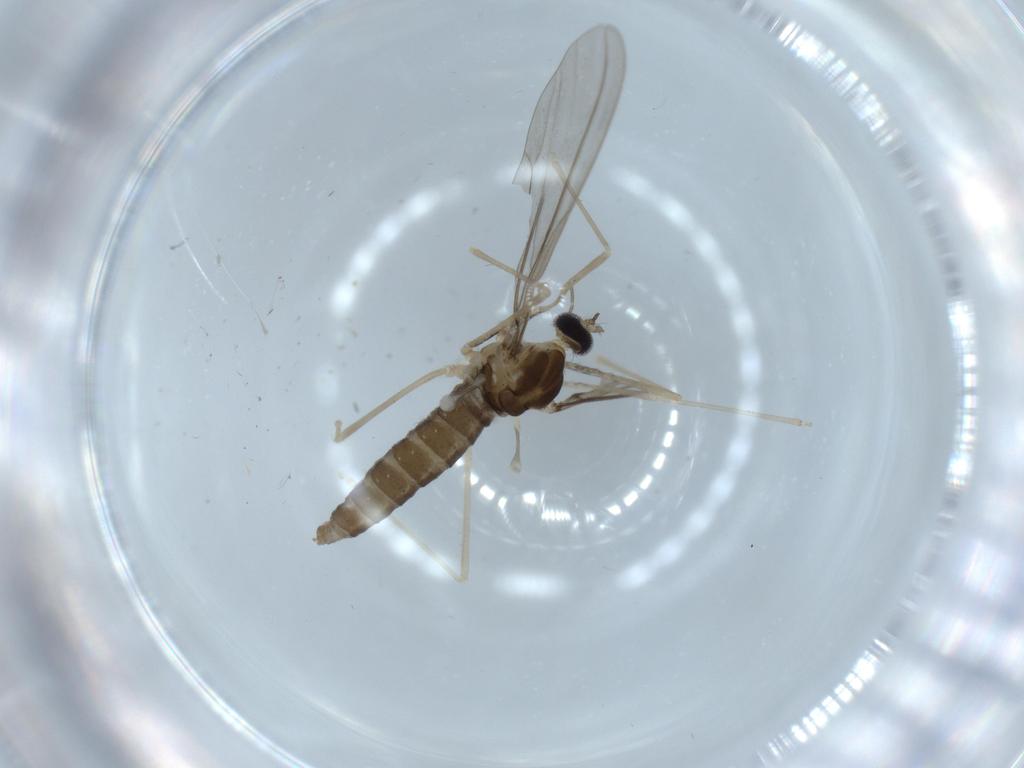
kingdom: Animalia
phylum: Arthropoda
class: Insecta
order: Diptera
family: Cecidomyiidae
